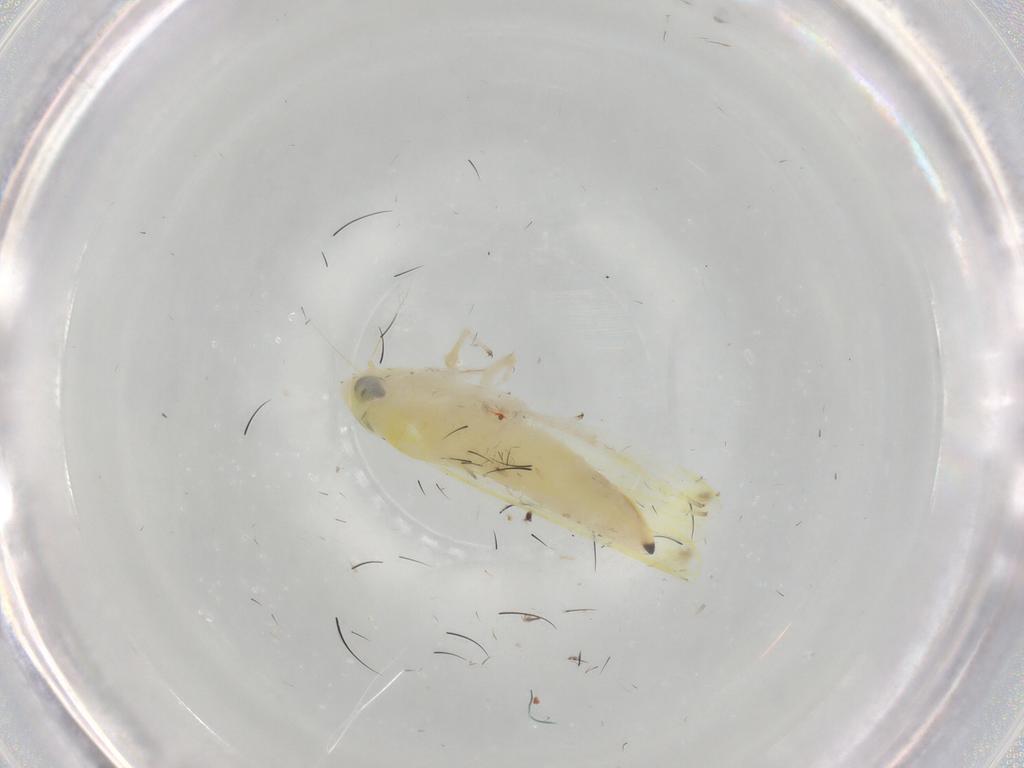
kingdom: Animalia
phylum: Arthropoda
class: Insecta
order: Hemiptera
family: Cicadellidae
